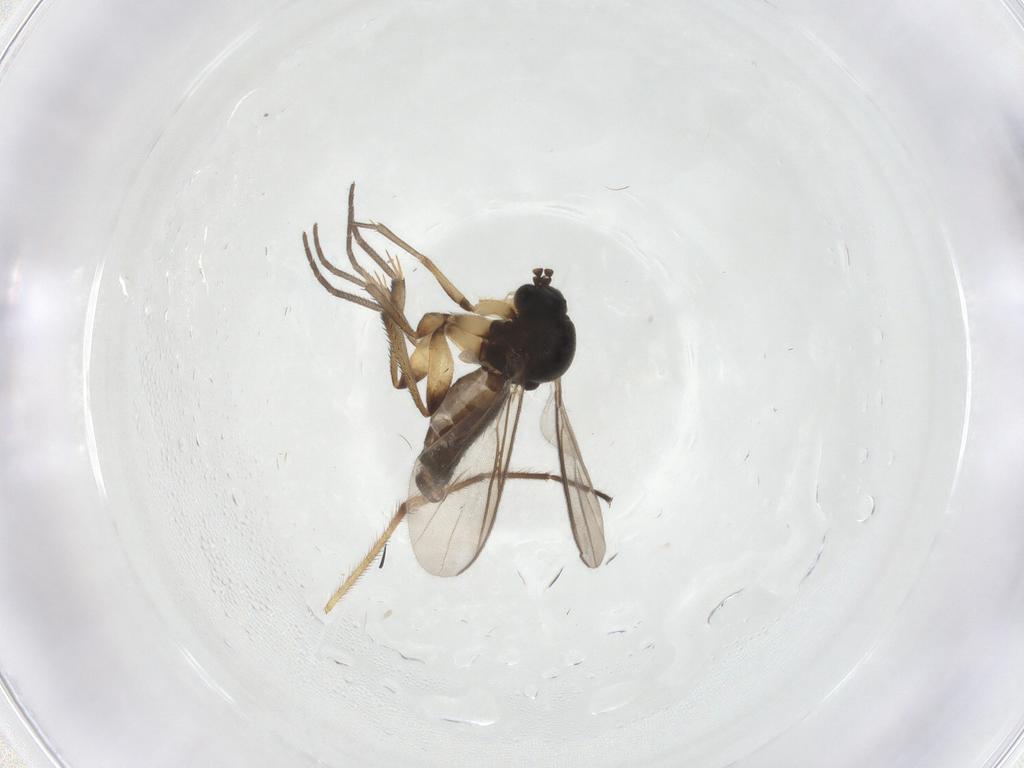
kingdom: Animalia
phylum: Arthropoda
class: Insecta
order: Diptera
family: Mycetophilidae
